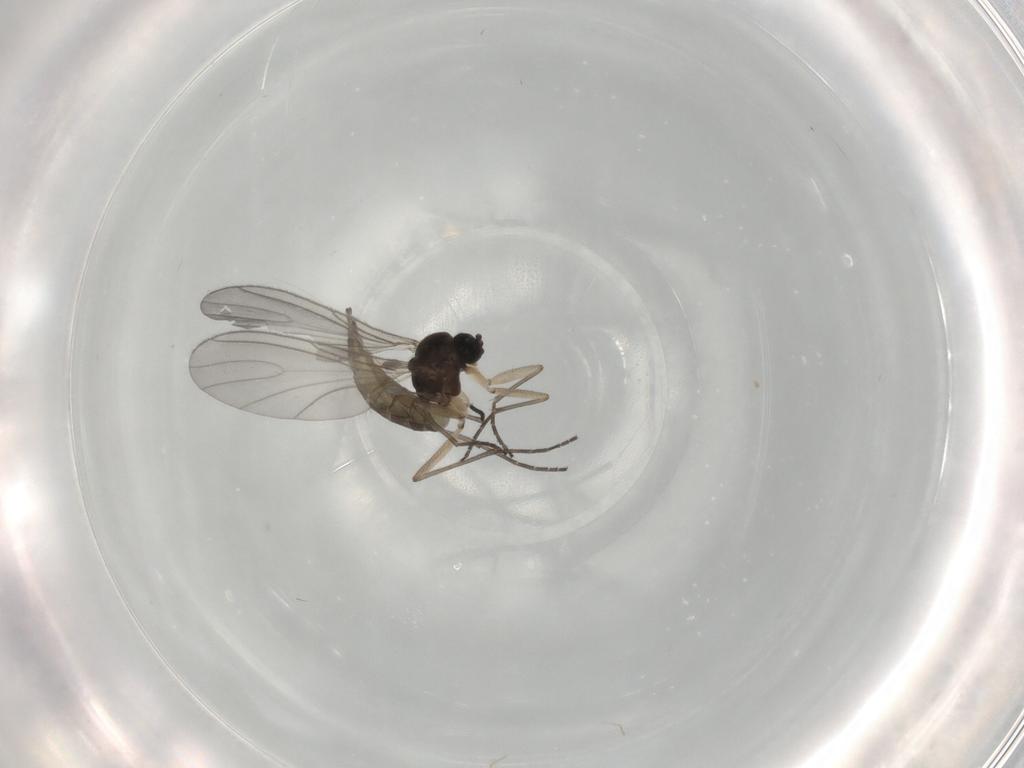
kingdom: Animalia
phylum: Arthropoda
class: Insecta
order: Diptera
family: Sciaridae
